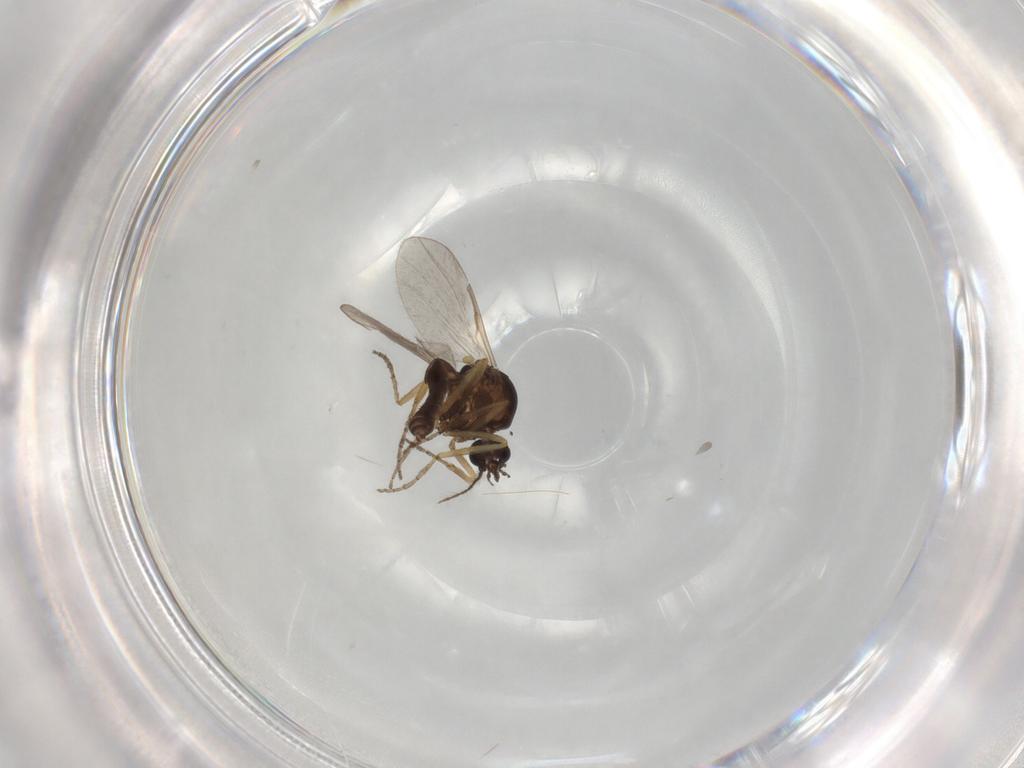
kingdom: Animalia
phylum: Arthropoda
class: Insecta
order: Diptera
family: Ceratopogonidae
